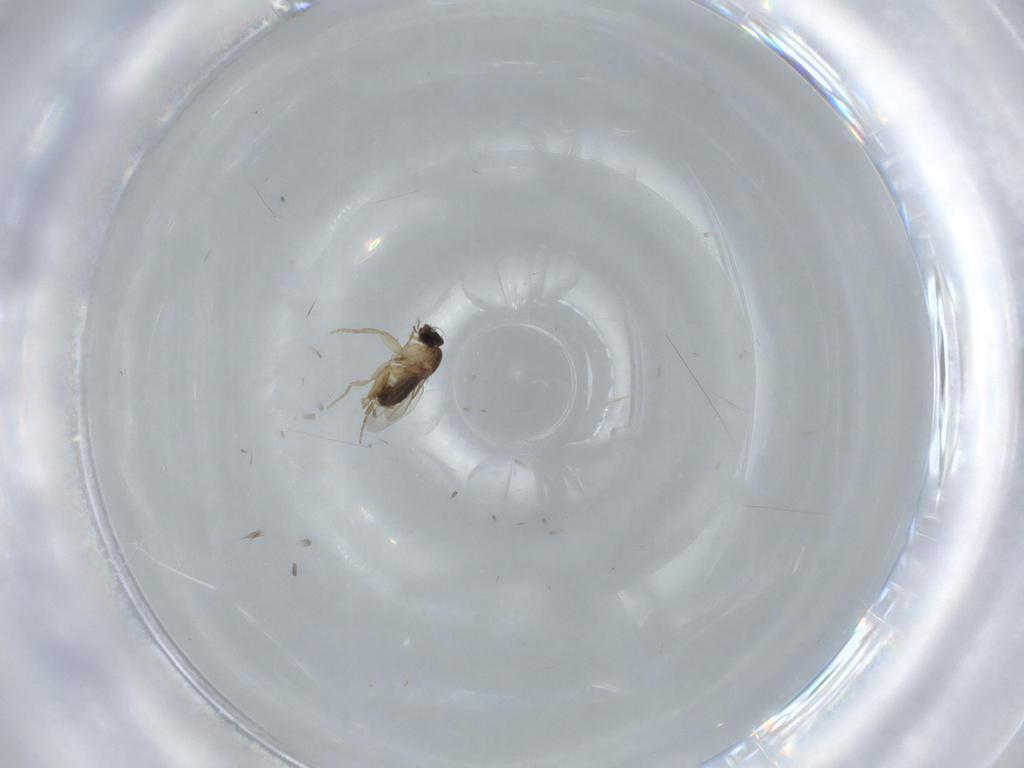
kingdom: Animalia
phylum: Arthropoda
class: Insecta
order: Diptera
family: Phoridae
